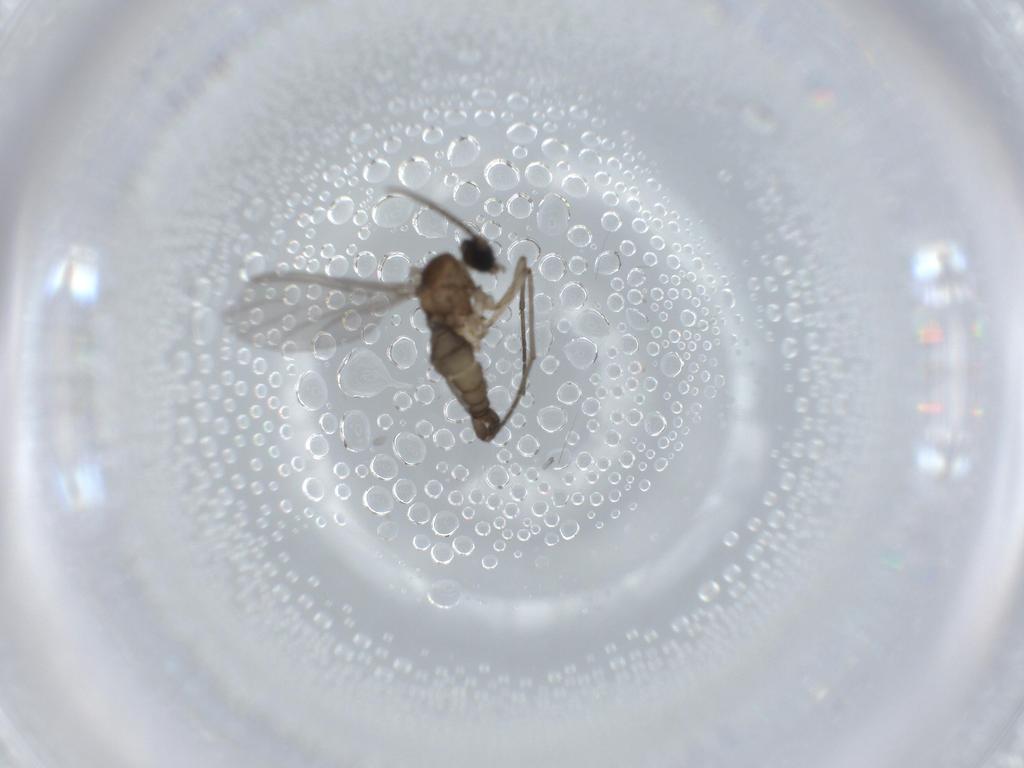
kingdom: Animalia
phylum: Arthropoda
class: Insecta
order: Diptera
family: Sciaridae
